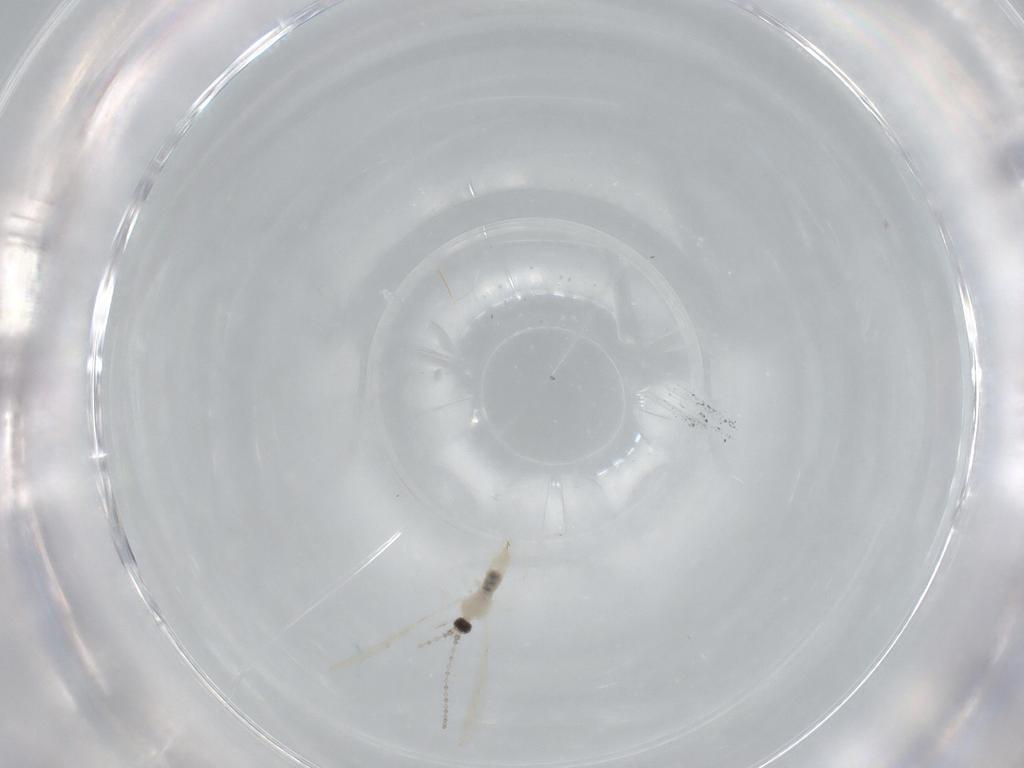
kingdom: Animalia
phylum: Arthropoda
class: Insecta
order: Diptera
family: Cecidomyiidae
